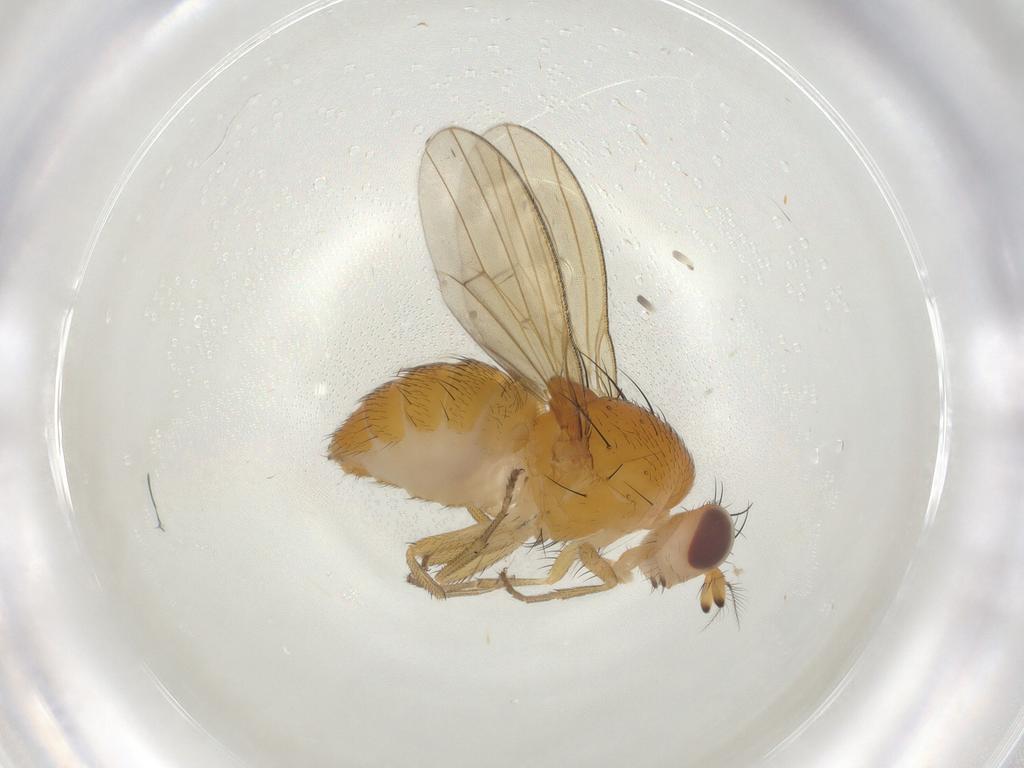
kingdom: Animalia
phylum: Arthropoda
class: Insecta
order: Diptera
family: Lauxaniidae
